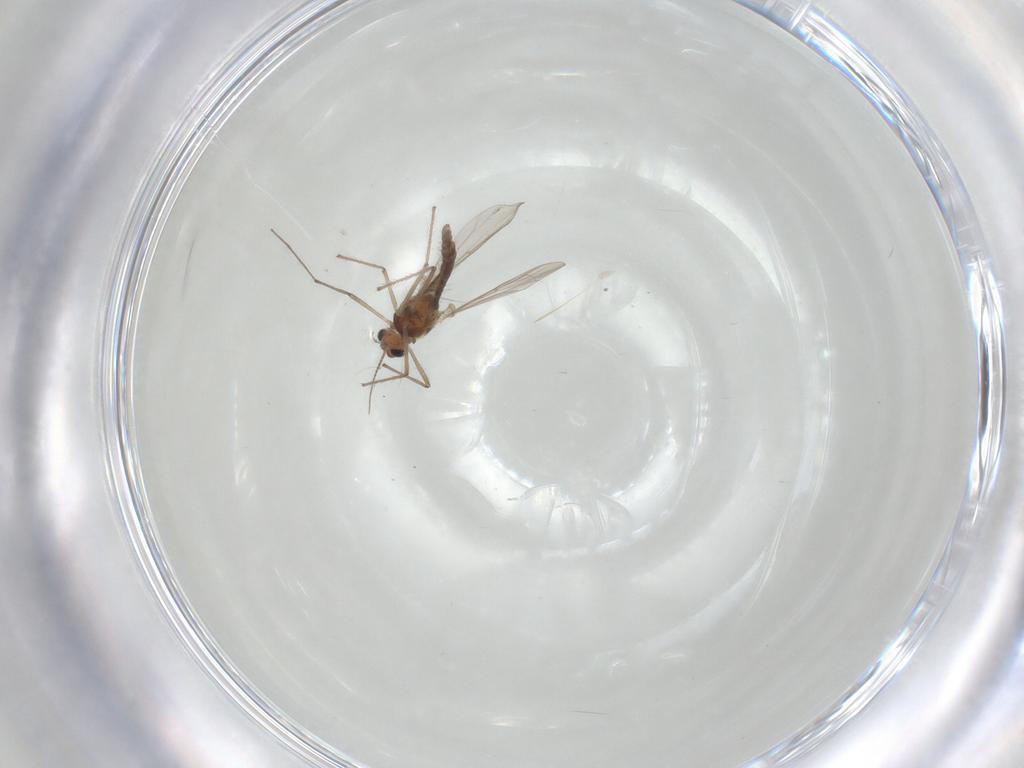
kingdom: Animalia
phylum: Arthropoda
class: Insecta
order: Diptera
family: Chironomidae
